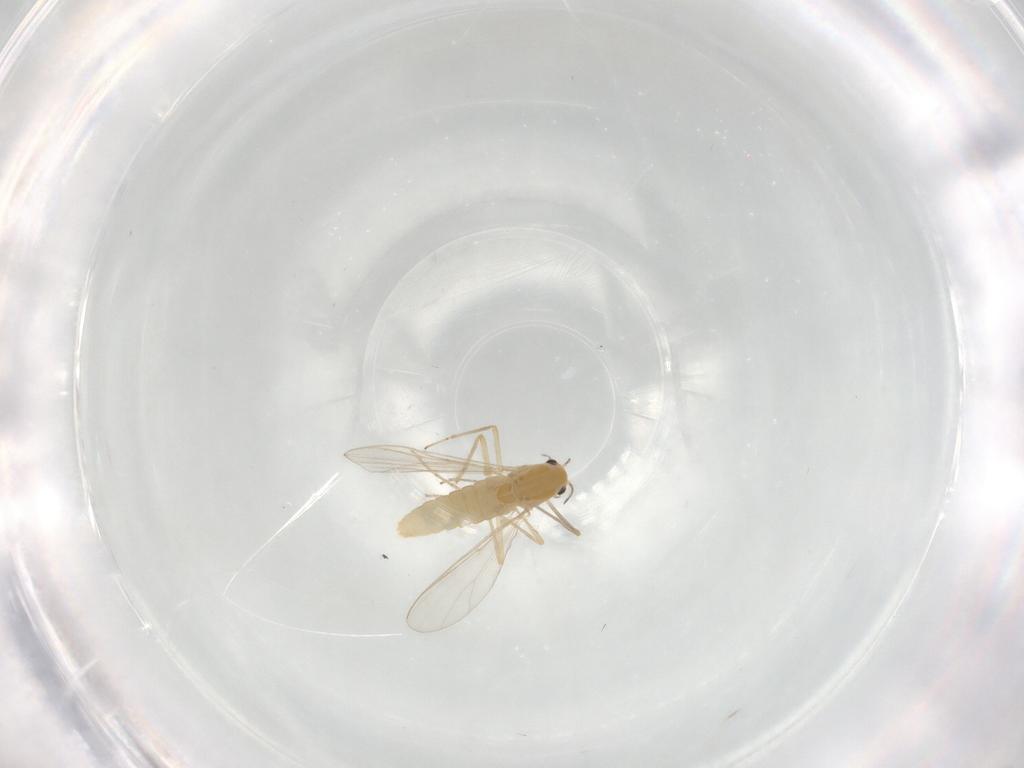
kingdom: Animalia
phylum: Arthropoda
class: Insecta
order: Diptera
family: Chironomidae
